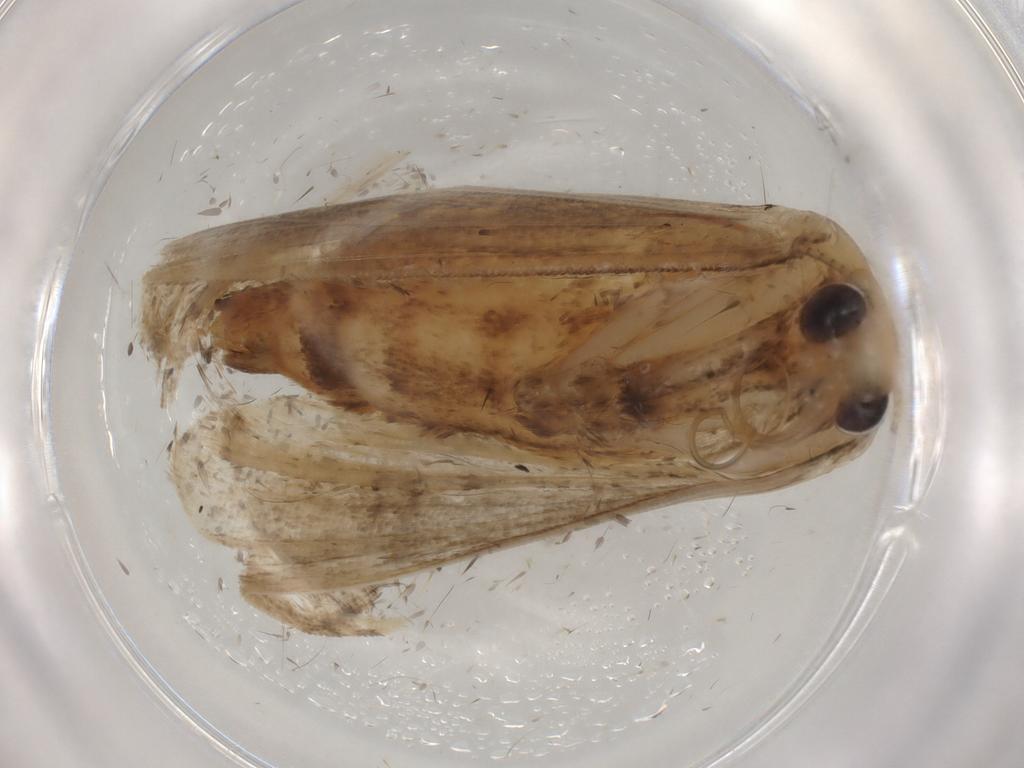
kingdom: Animalia
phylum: Arthropoda
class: Insecta
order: Lepidoptera
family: Noctuidae
